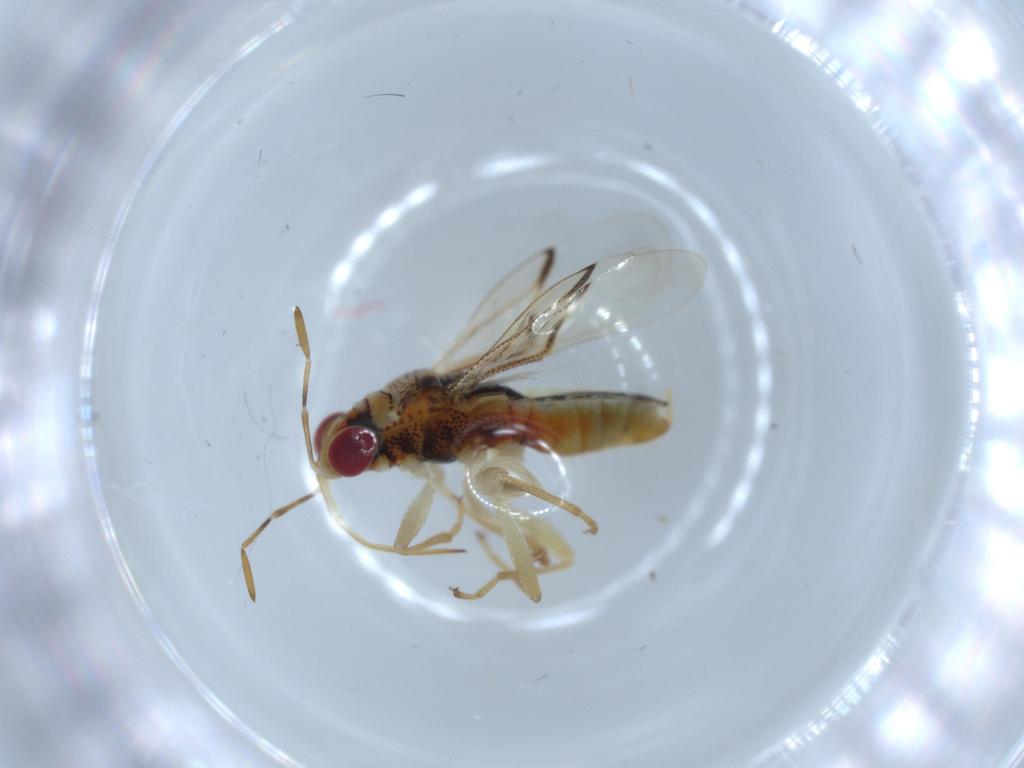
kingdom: Animalia
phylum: Arthropoda
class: Insecta
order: Hemiptera
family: Geocoridae
